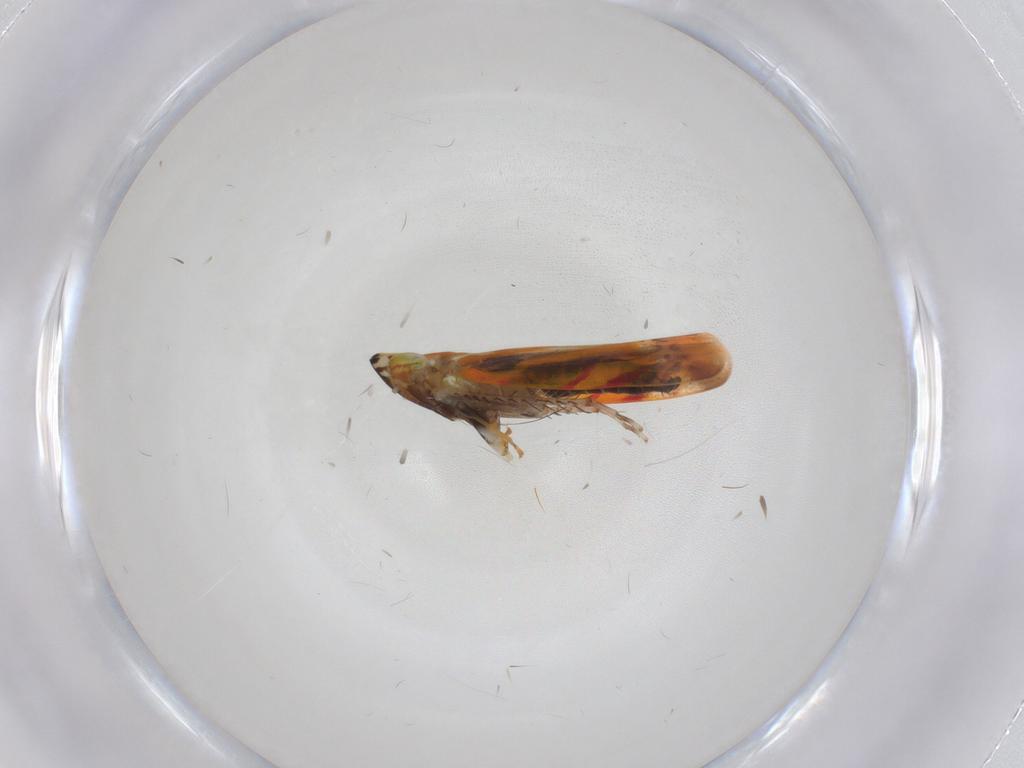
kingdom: Animalia
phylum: Arthropoda
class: Insecta
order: Hemiptera
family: Cicadellidae
